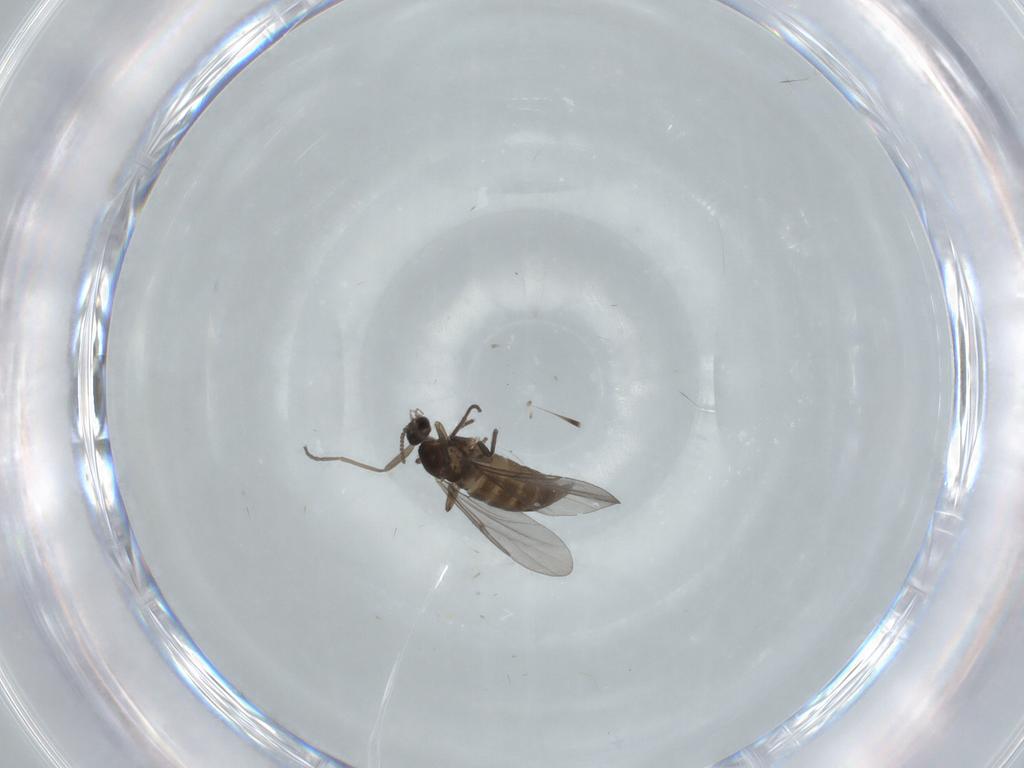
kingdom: Animalia
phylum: Arthropoda
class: Insecta
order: Diptera
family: Cecidomyiidae
